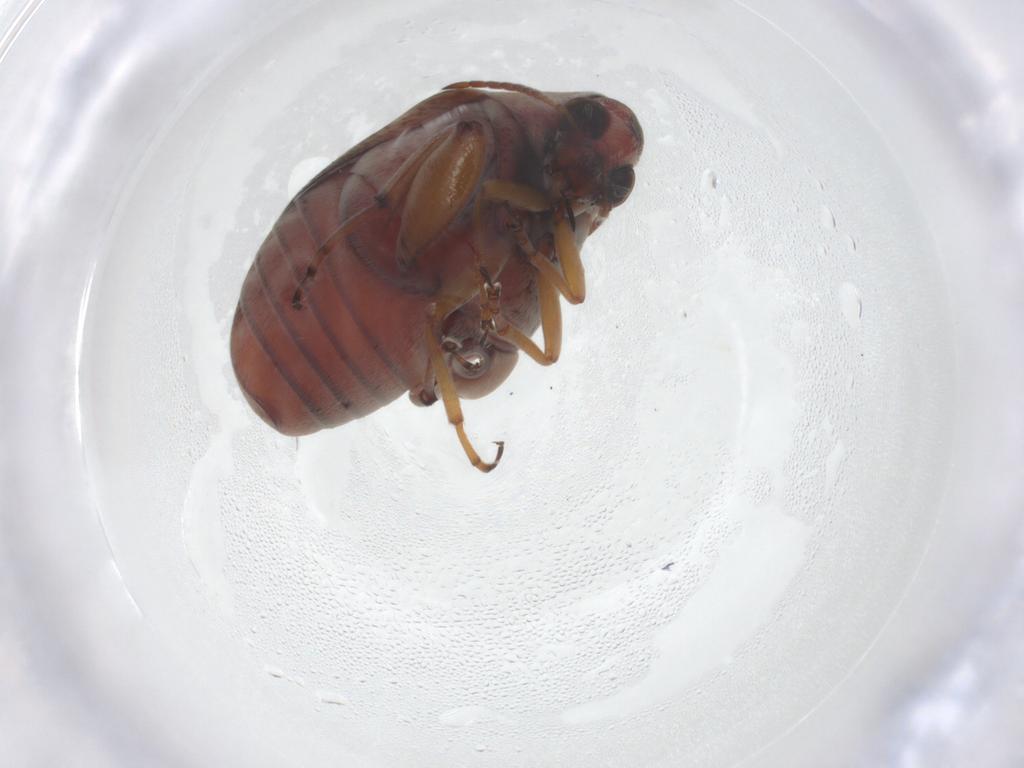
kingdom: Animalia
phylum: Arthropoda
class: Insecta
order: Coleoptera
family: Chrysomelidae
